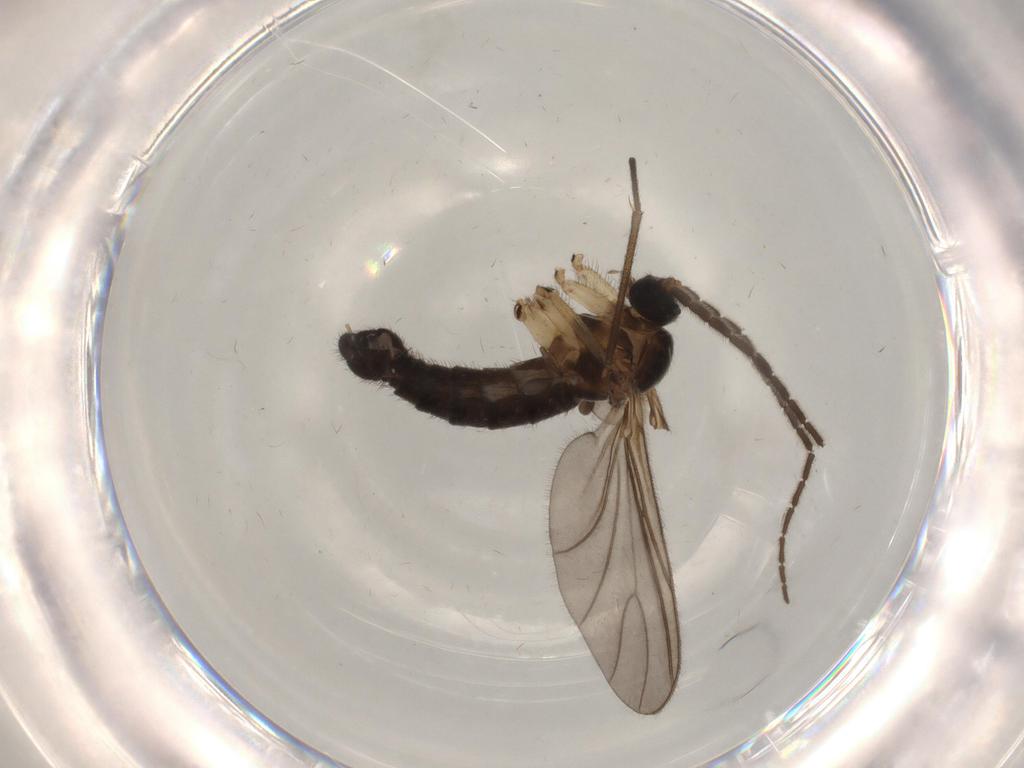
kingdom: Animalia
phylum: Arthropoda
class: Insecta
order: Diptera
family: Sciaridae
